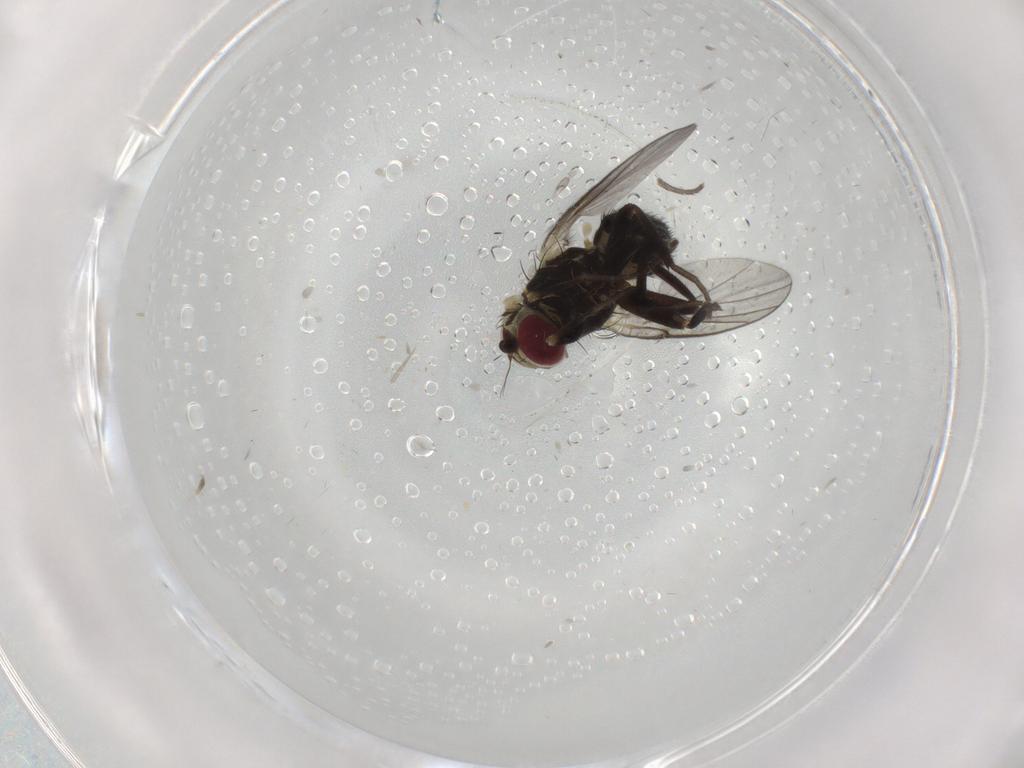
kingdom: Animalia
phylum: Arthropoda
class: Insecta
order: Diptera
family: Agromyzidae
